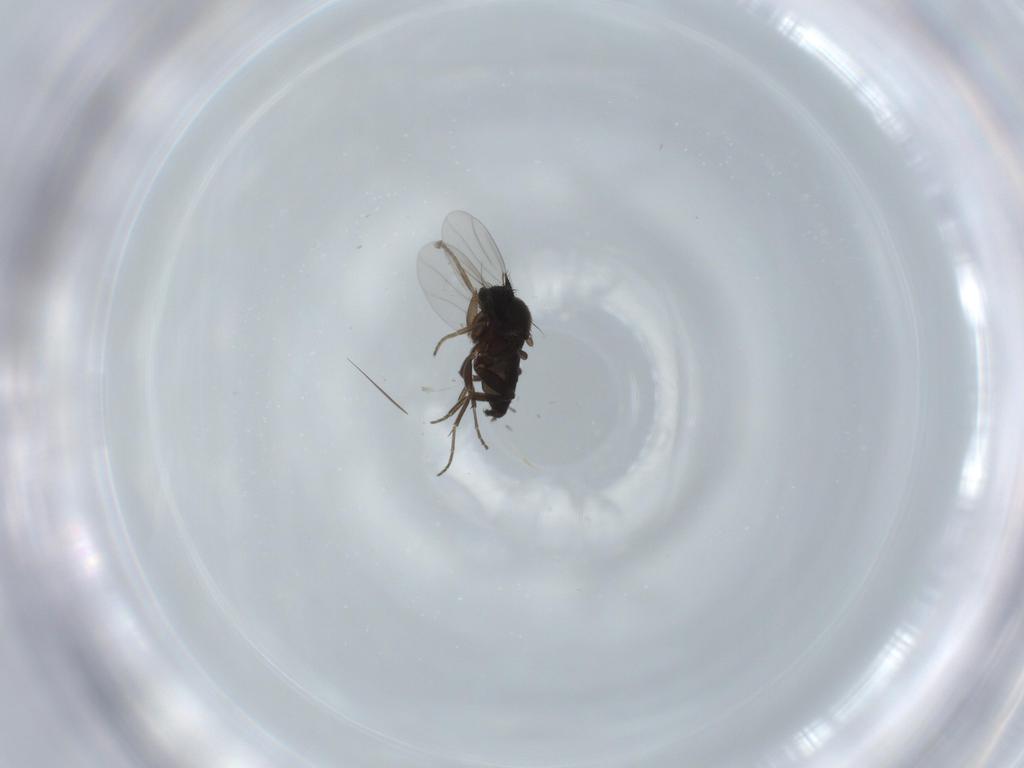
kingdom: Animalia
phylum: Arthropoda
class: Insecta
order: Diptera
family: Phoridae
